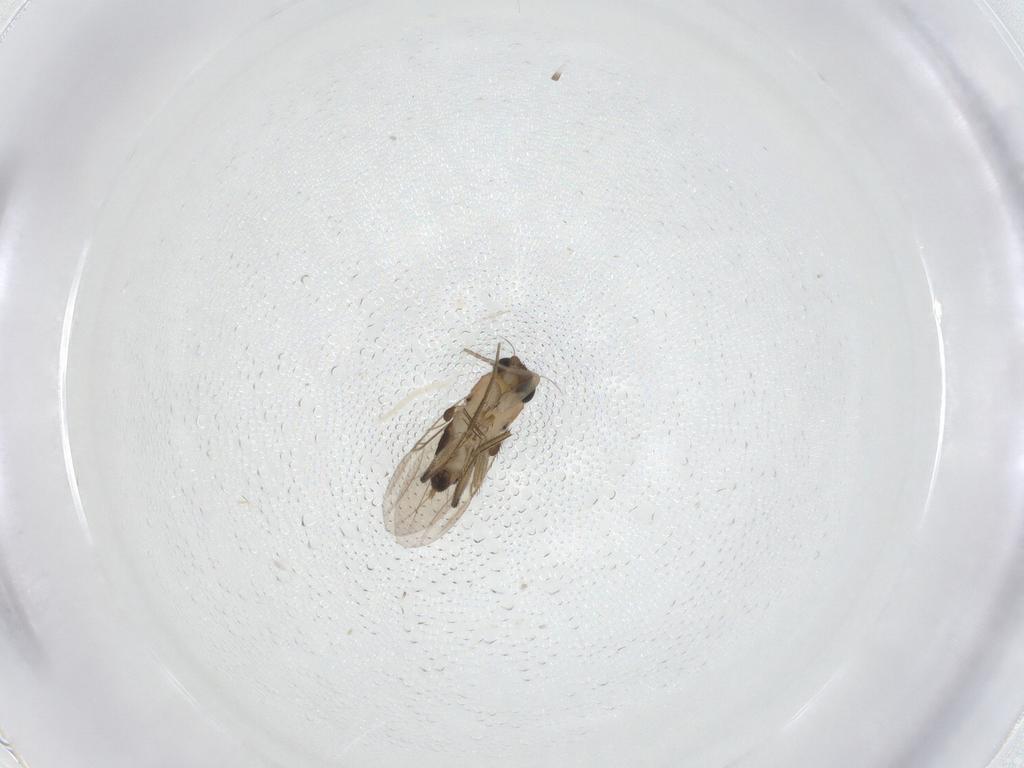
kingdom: Animalia
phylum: Arthropoda
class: Insecta
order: Diptera
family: Phoridae
